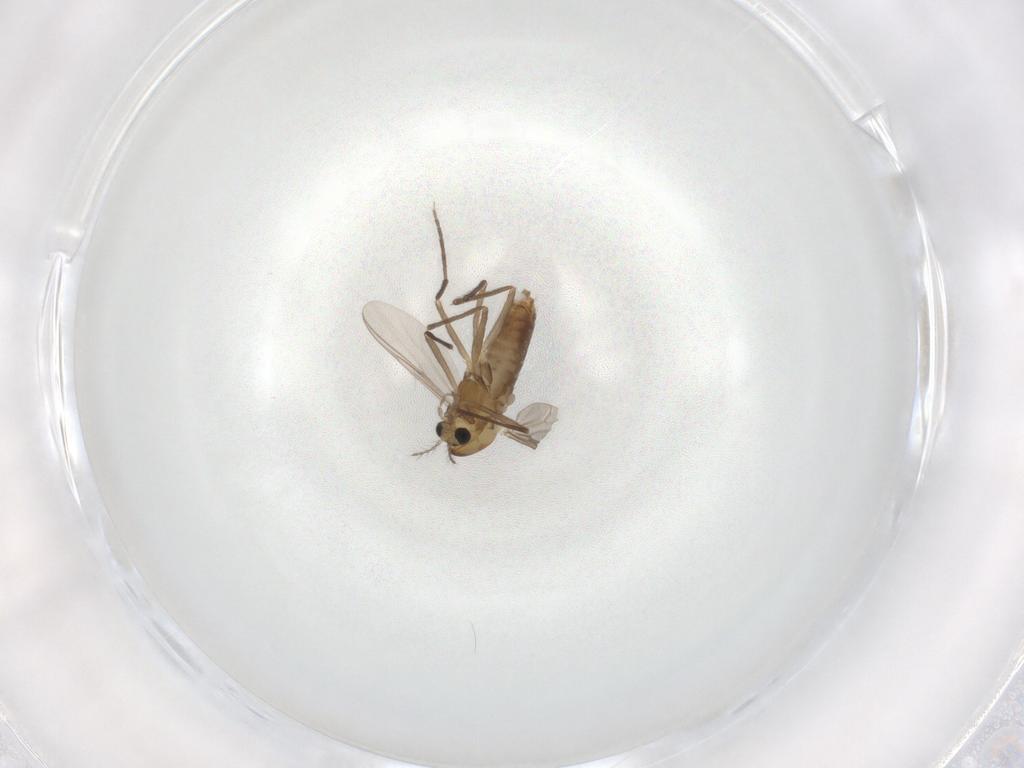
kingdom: Animalia
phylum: Arthropoda
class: Insecta
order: Diptera
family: Chironomidae
